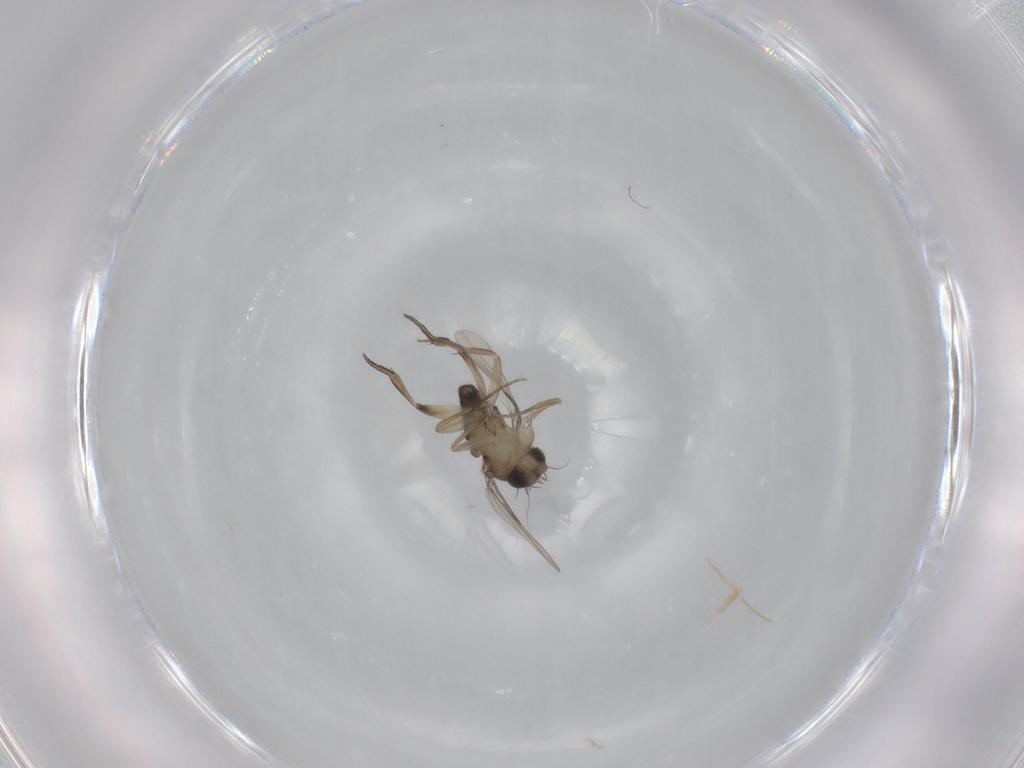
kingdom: Animalia
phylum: Arthropoda
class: Insecta
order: Diptera
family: Phoridae
